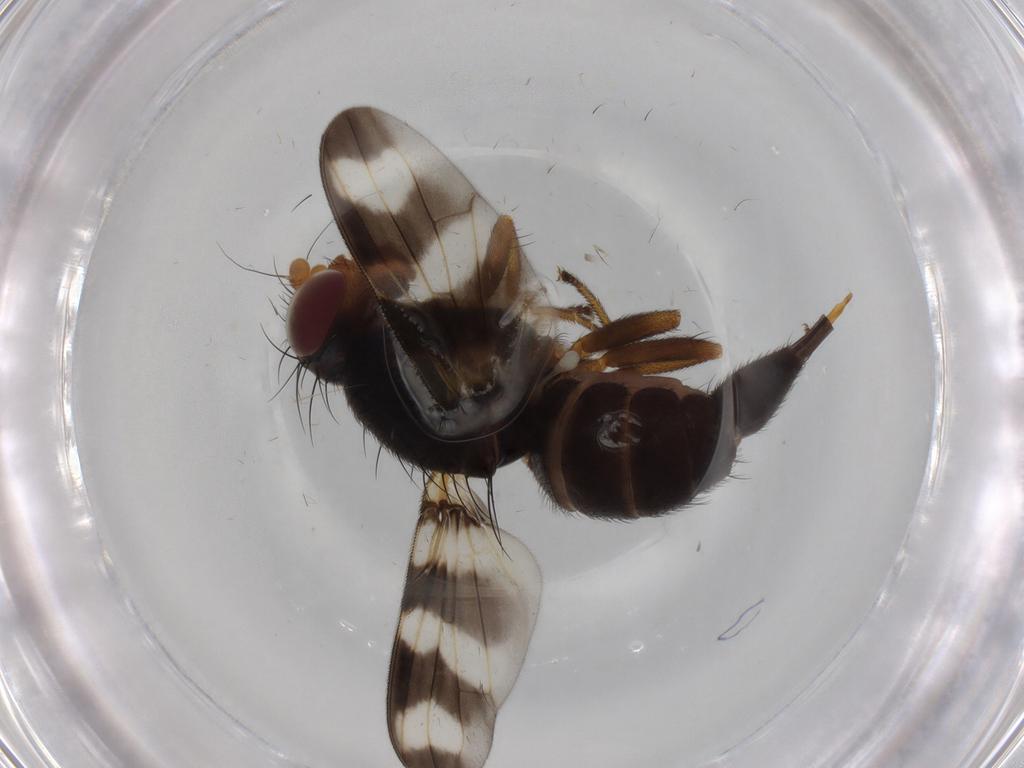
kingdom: Animalia
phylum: Arthropoda
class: Insecta
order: Diptera
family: Ulidiidae
